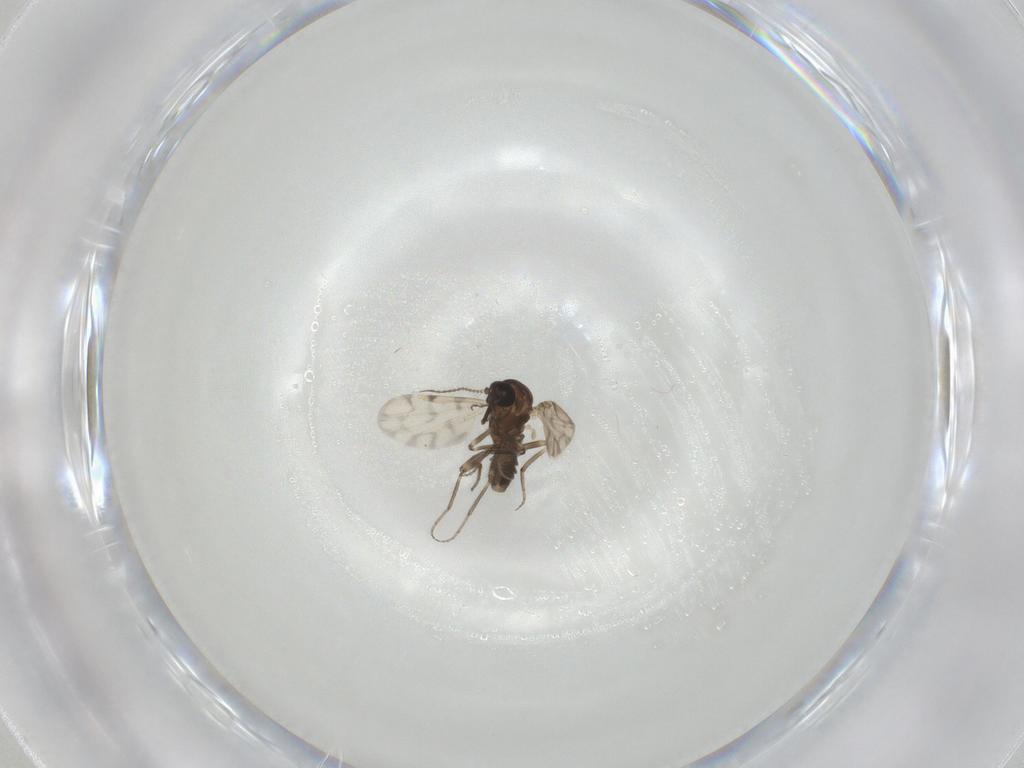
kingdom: Animalia
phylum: Arthropoda
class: Insecta
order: Diptera
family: Ceratopogonidae
